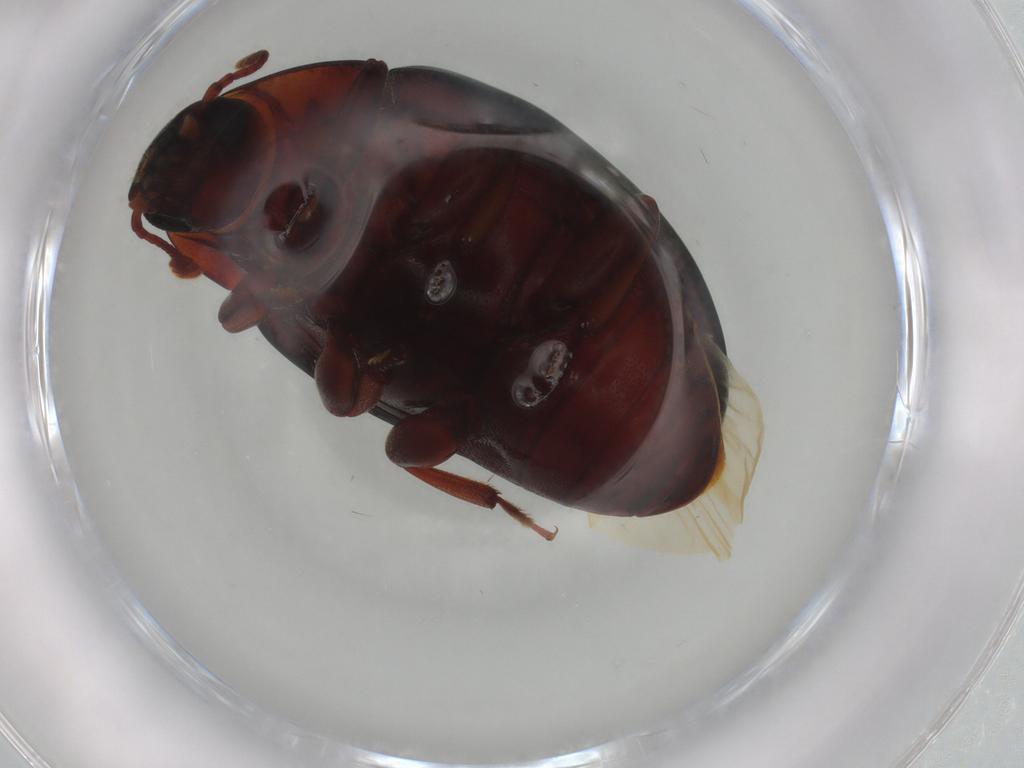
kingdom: Animalia
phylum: Arthropoda
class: Insecta
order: Coleoptera
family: Zopheridae
